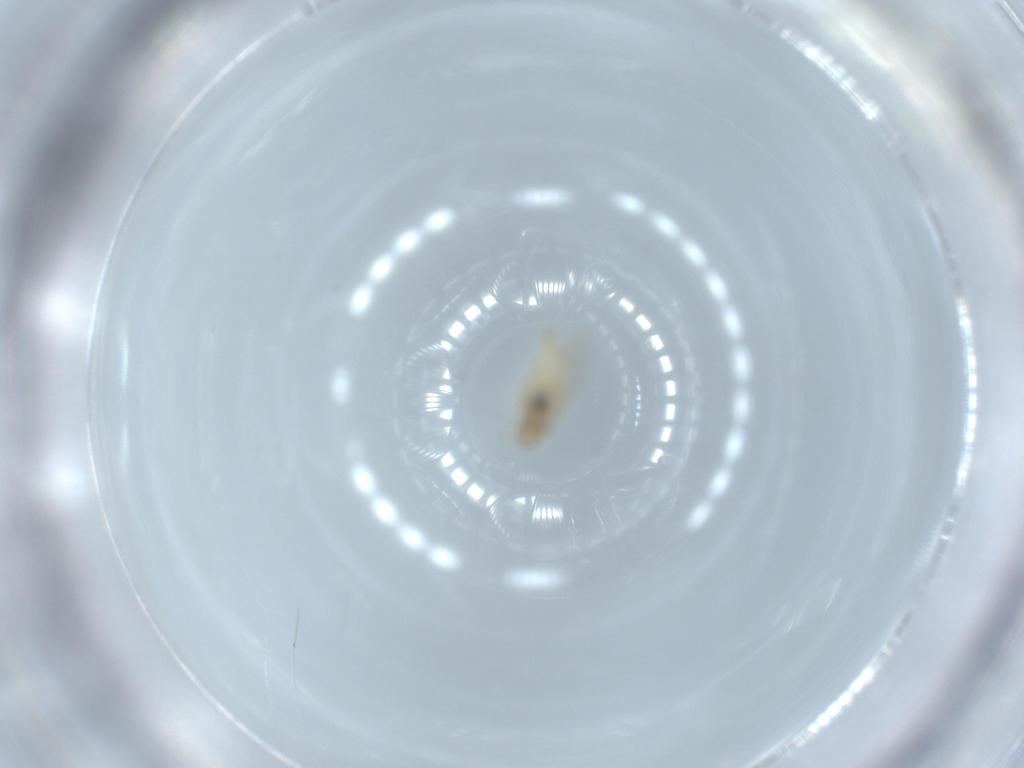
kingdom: Animalia
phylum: Arthropoda
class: Insecta
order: Diptera
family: Cecidomyiidae
